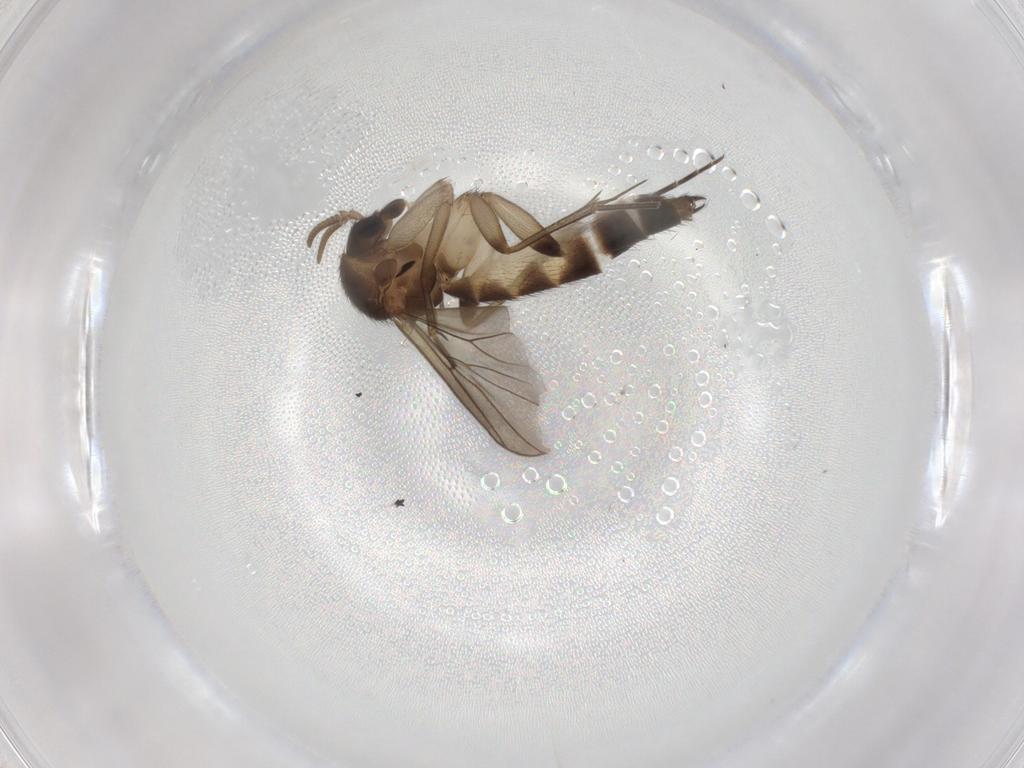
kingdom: Animalia
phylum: Arthropoda
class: Insecta
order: Diptera
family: Mycetophilidae
